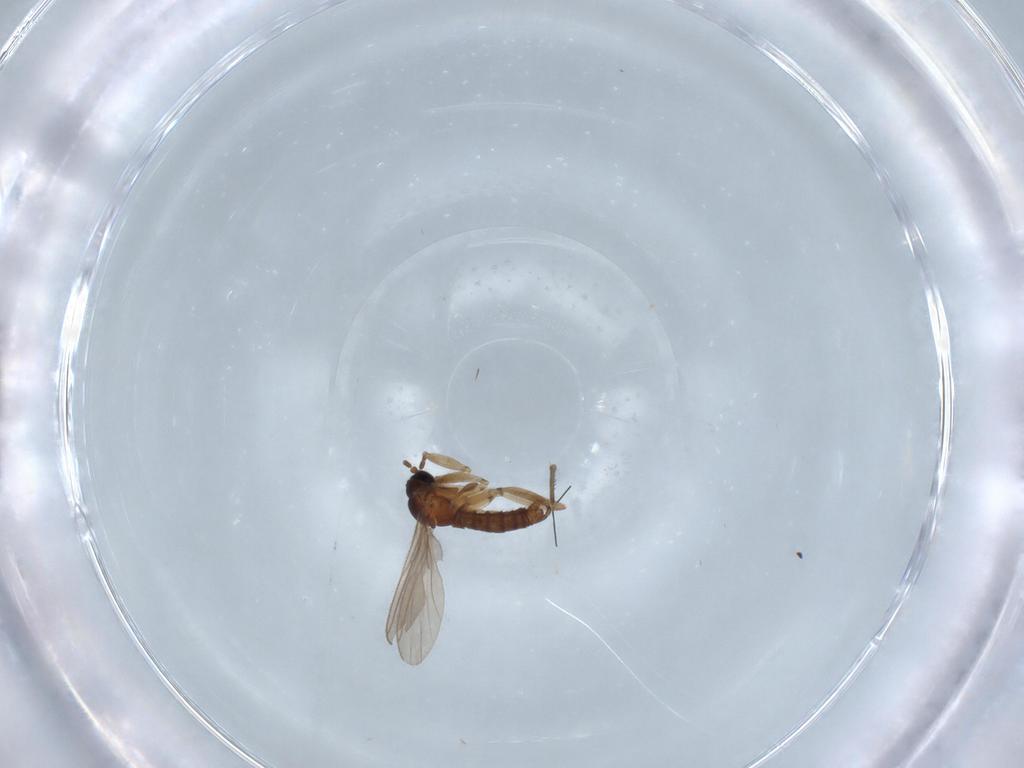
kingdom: Animalia
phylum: Arthropoda
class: Insecta
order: Diptera
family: Sciaridae
